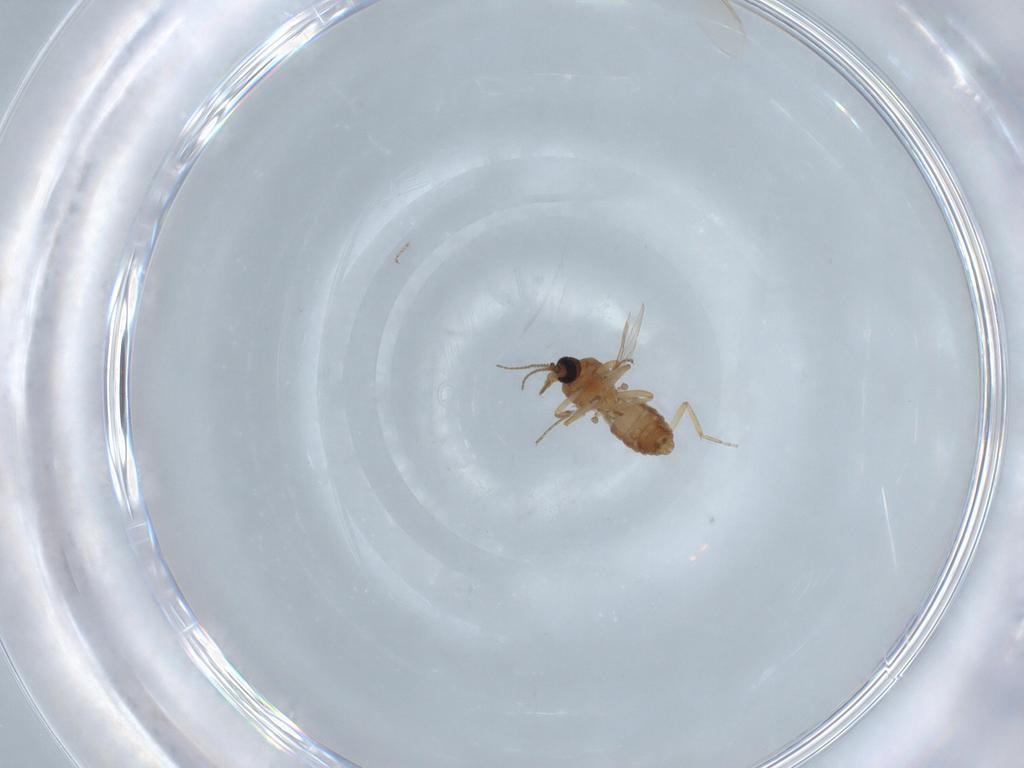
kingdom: Animalia
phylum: Arthropoda
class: Insecta
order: Diptera
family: Ceratopogonidae
